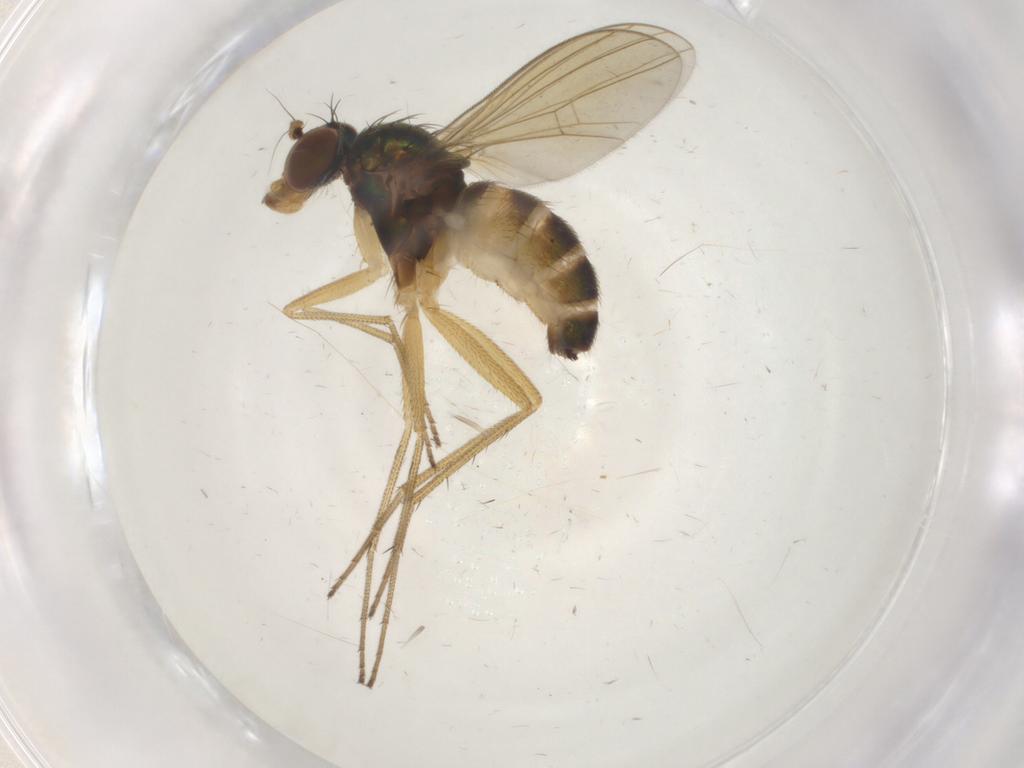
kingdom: Animalia
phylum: Arthropoda
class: Insecta
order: Diptera
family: Dolichopodidae
